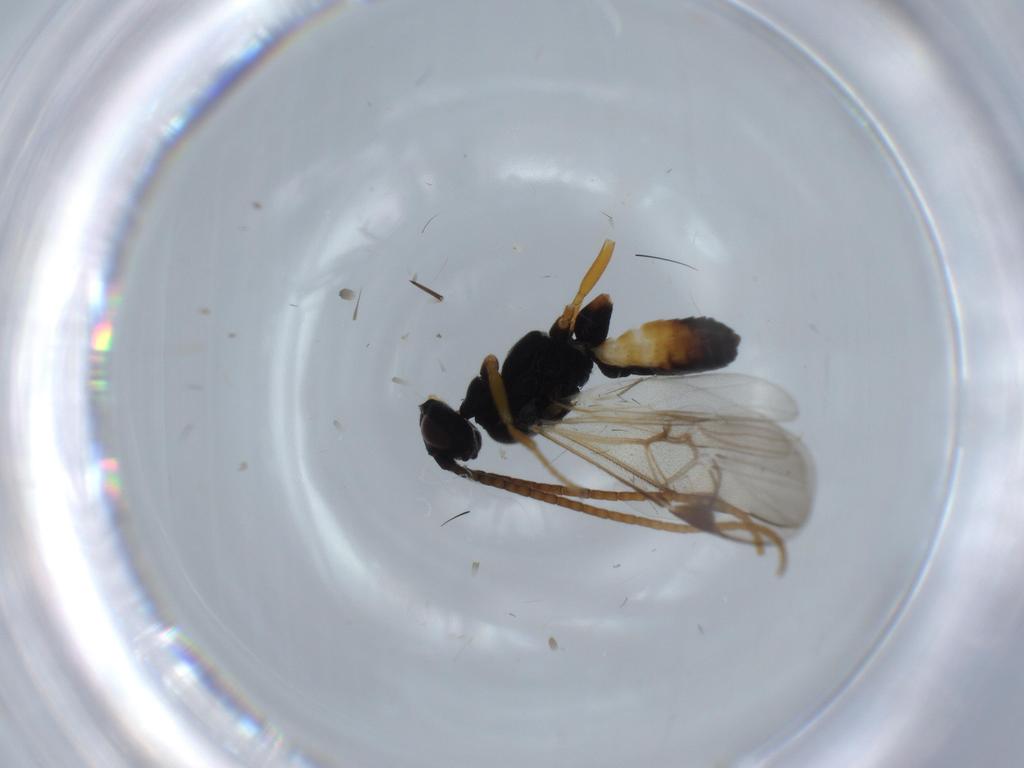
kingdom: Animalia
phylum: Arthropoda
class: Insecta
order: Hymenoptera
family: Braconidae
